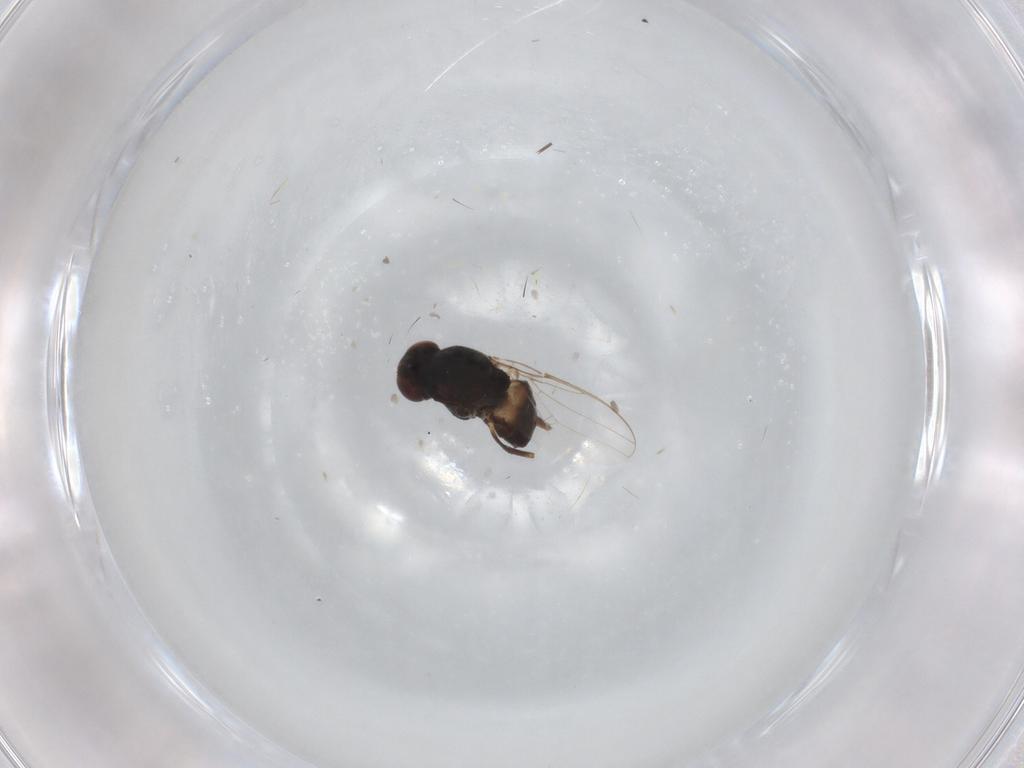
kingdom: Animalia
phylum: Arthropoda
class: Insecta
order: Diptera
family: Chloropidae
